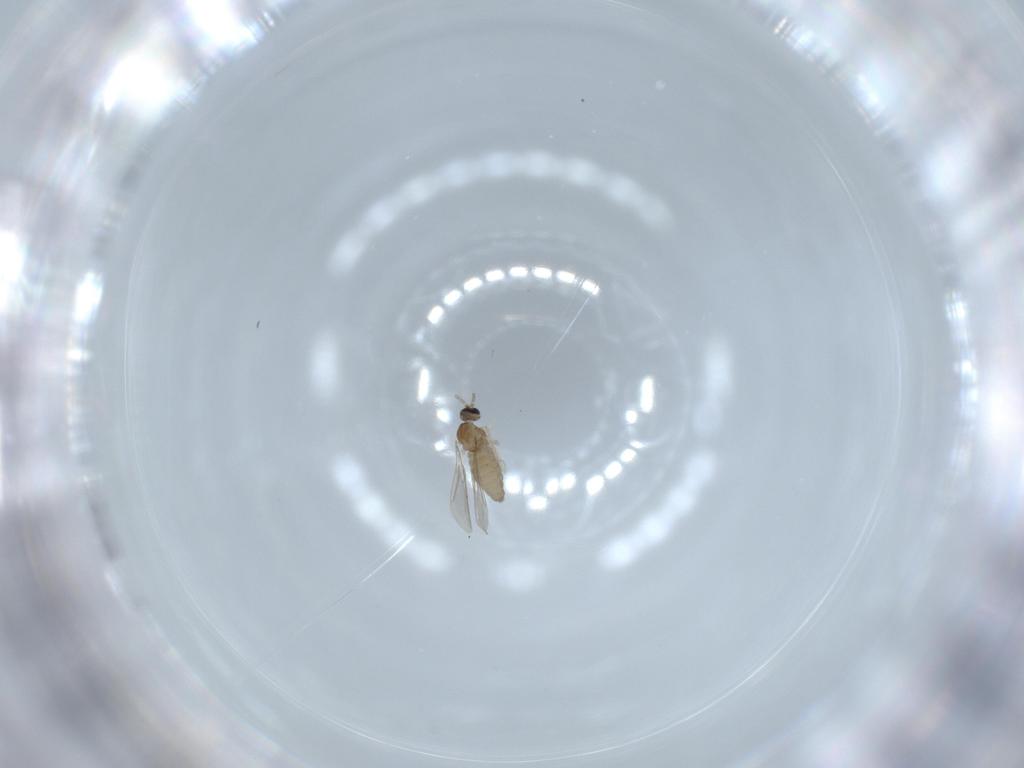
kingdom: Animalia
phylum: Arthropoda
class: Insecta
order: Diptera
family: Cecidomyiidae
